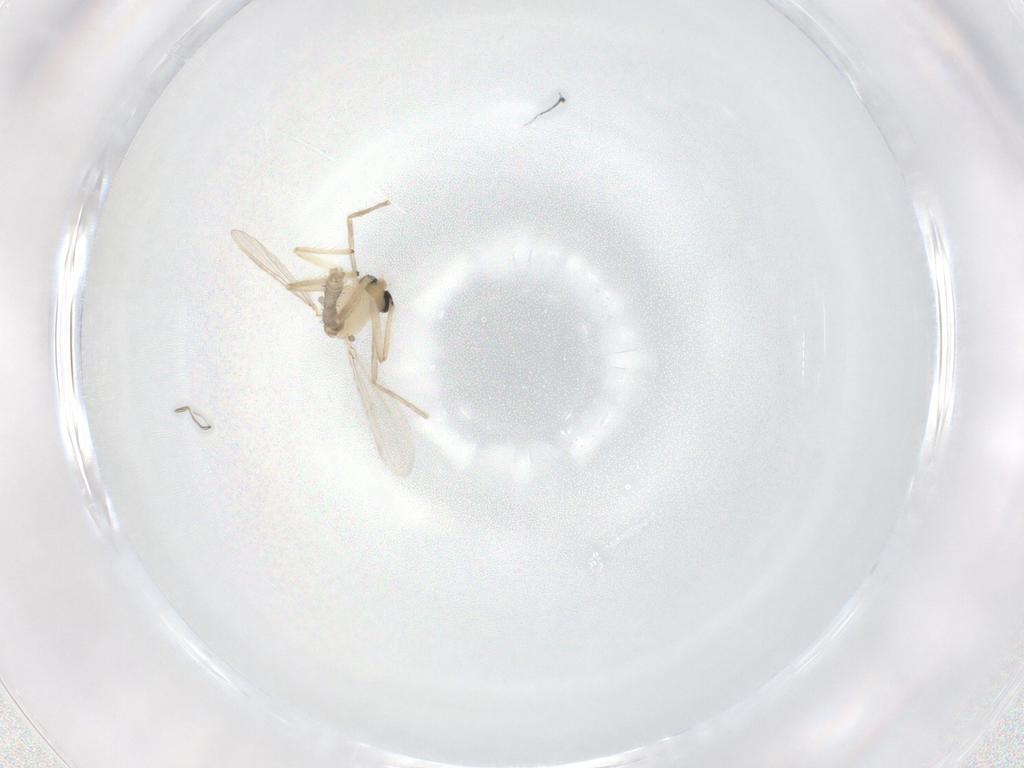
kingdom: Animalia
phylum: Arthropoda
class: Insecta
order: Diptera
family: Chironomidae
